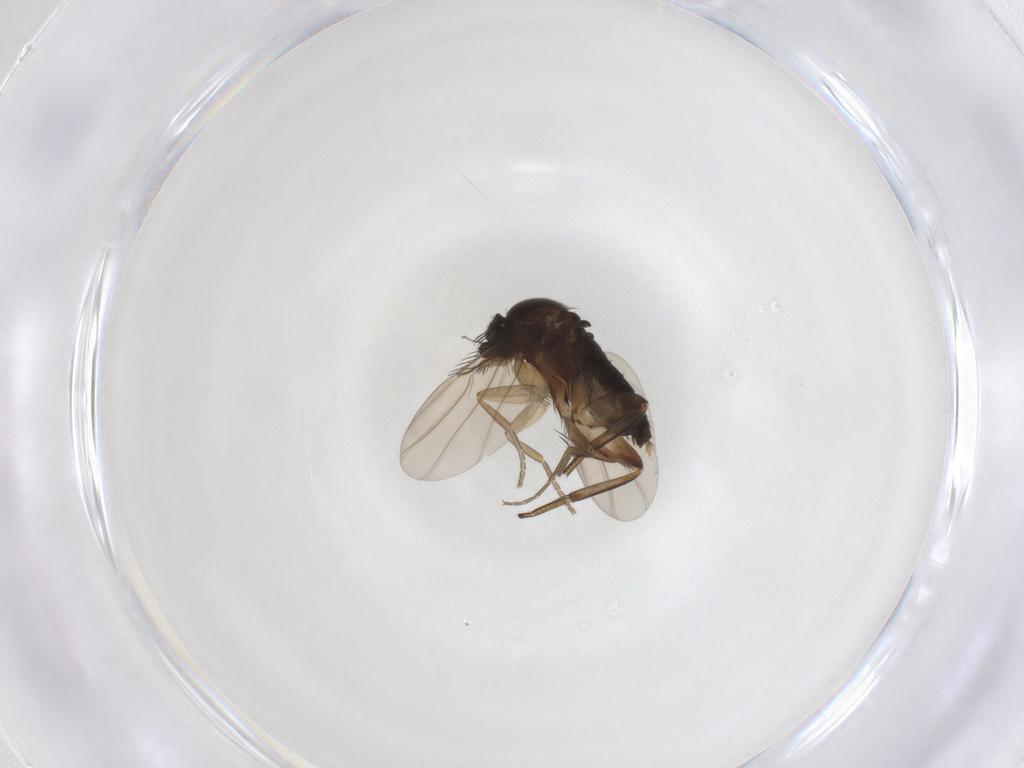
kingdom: Animalia
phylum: Arthropoda
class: Insecta
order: Diptera
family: Phoridae
